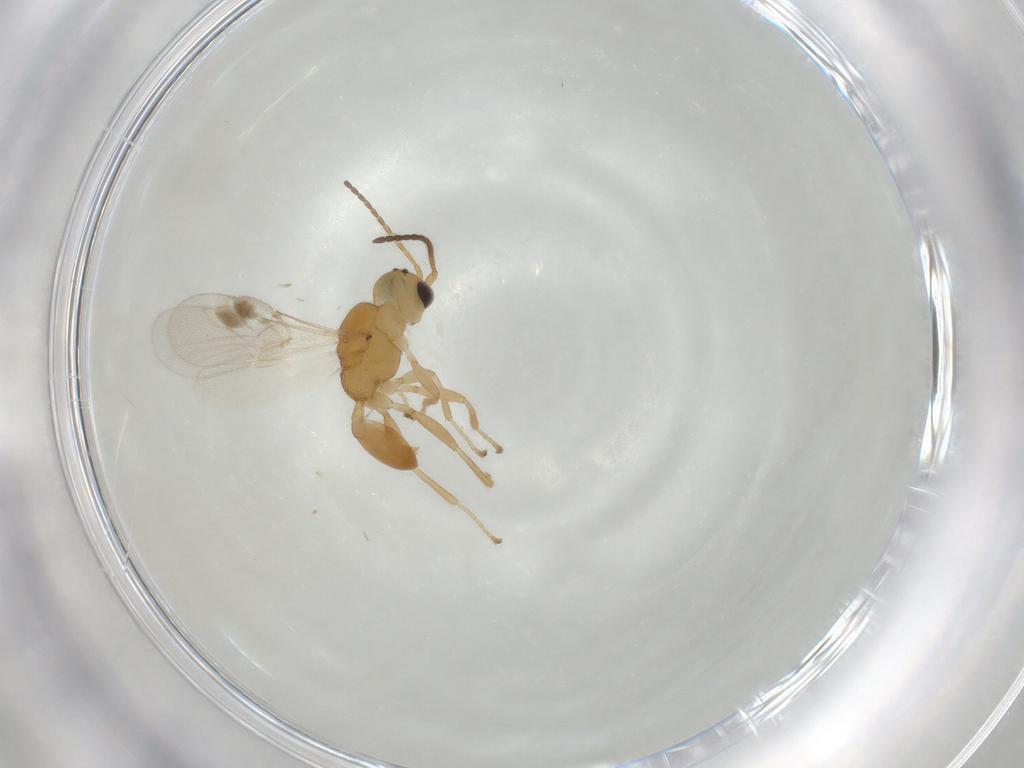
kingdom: Animalia
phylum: Arthropoda
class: Insecta
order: Hymenoptera
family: Braconidae
